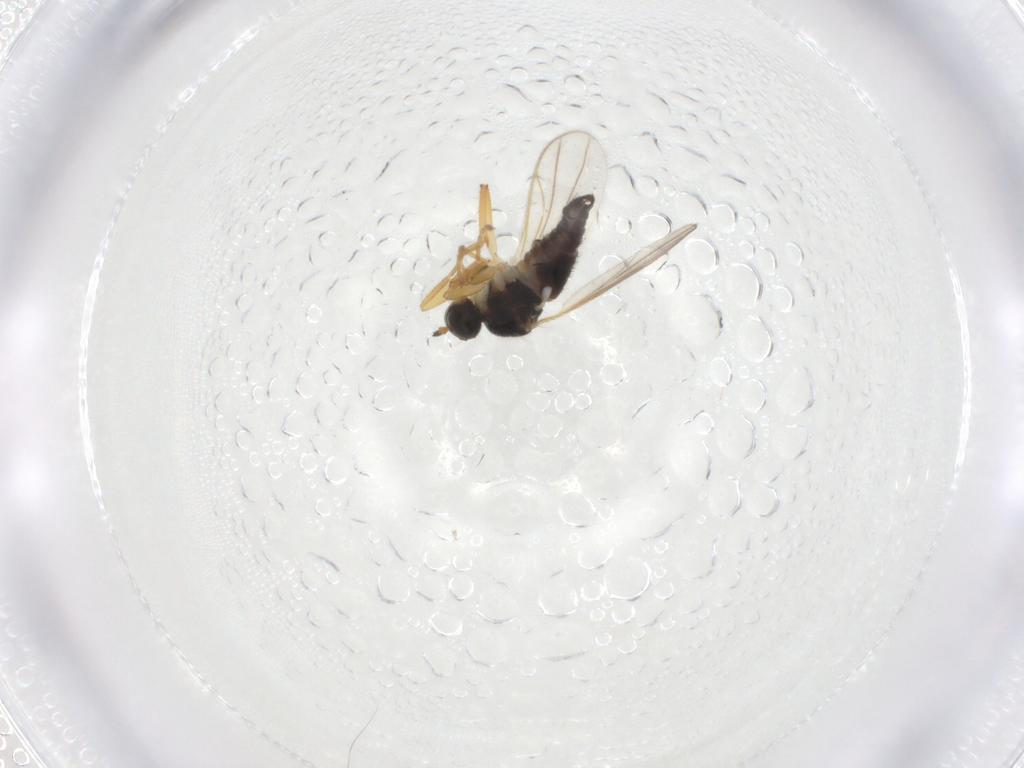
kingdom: Animalia
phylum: Arthropoda
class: Insecta
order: Diptera
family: Hybotidae
